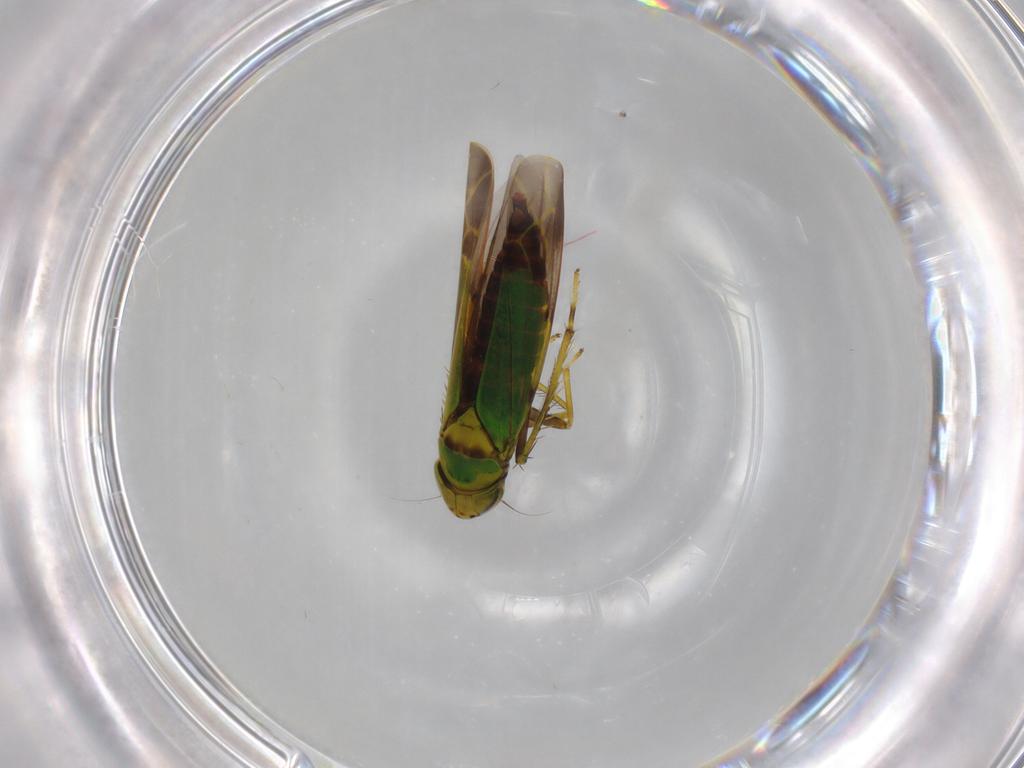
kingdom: Animalia
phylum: Arthropoda
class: Insecta
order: Hemiptera
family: Cicadellidae
